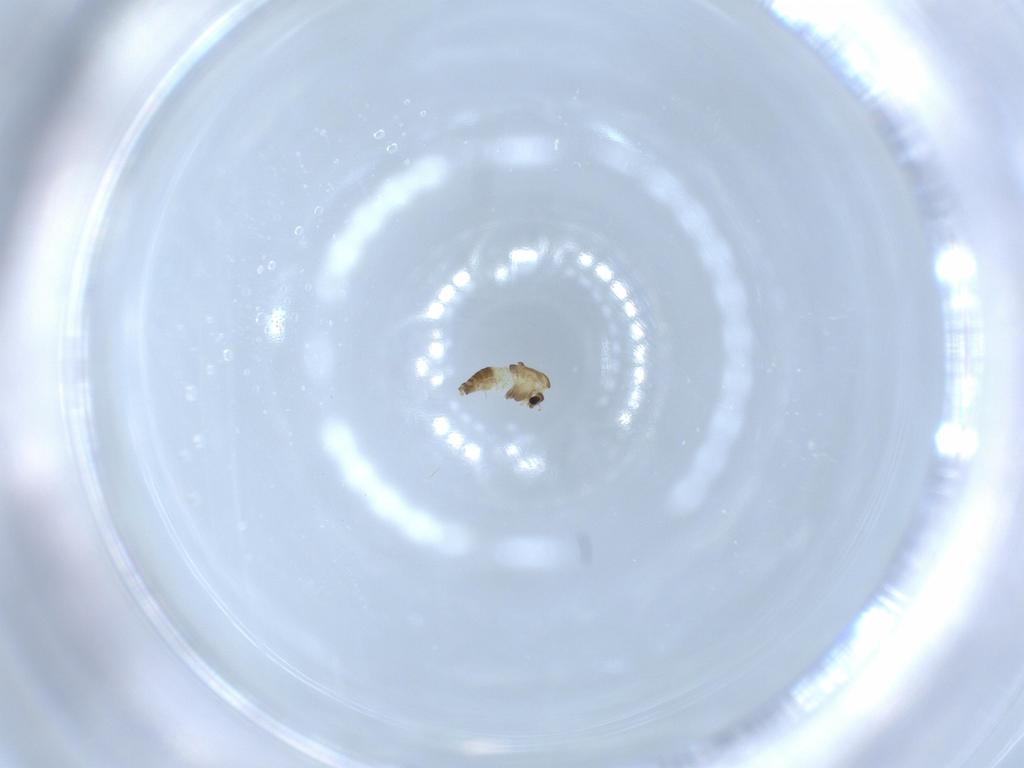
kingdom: Animalia
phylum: Arthropoda
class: Insecta
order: Diptera
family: Chironomidae
